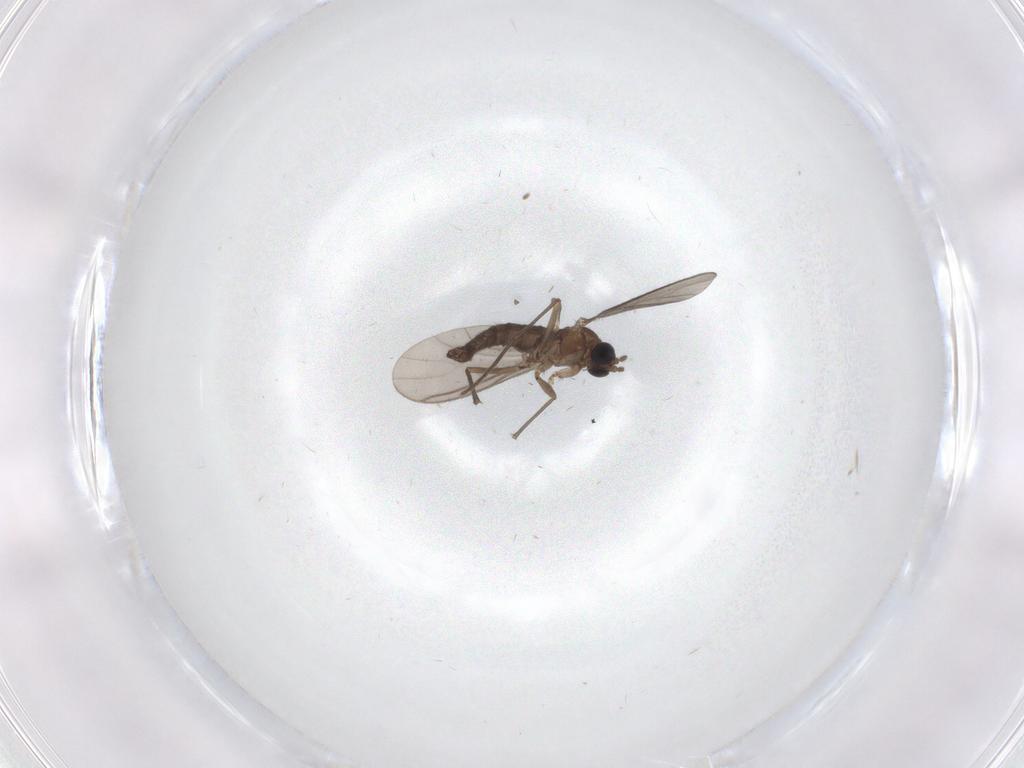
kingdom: Animalia
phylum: Arthropoda
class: Insecta
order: Diptera
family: Sciaridae
